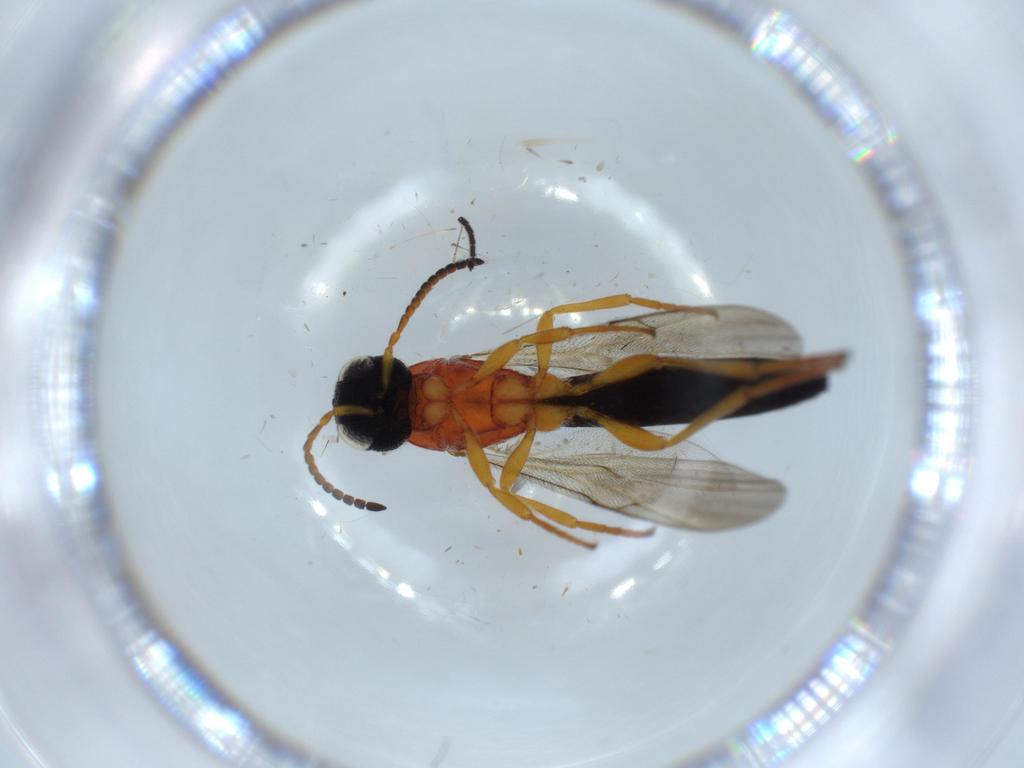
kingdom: Animalia
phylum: Arthropoda
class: Insecta
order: Hymenoptera
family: Scelionidae
